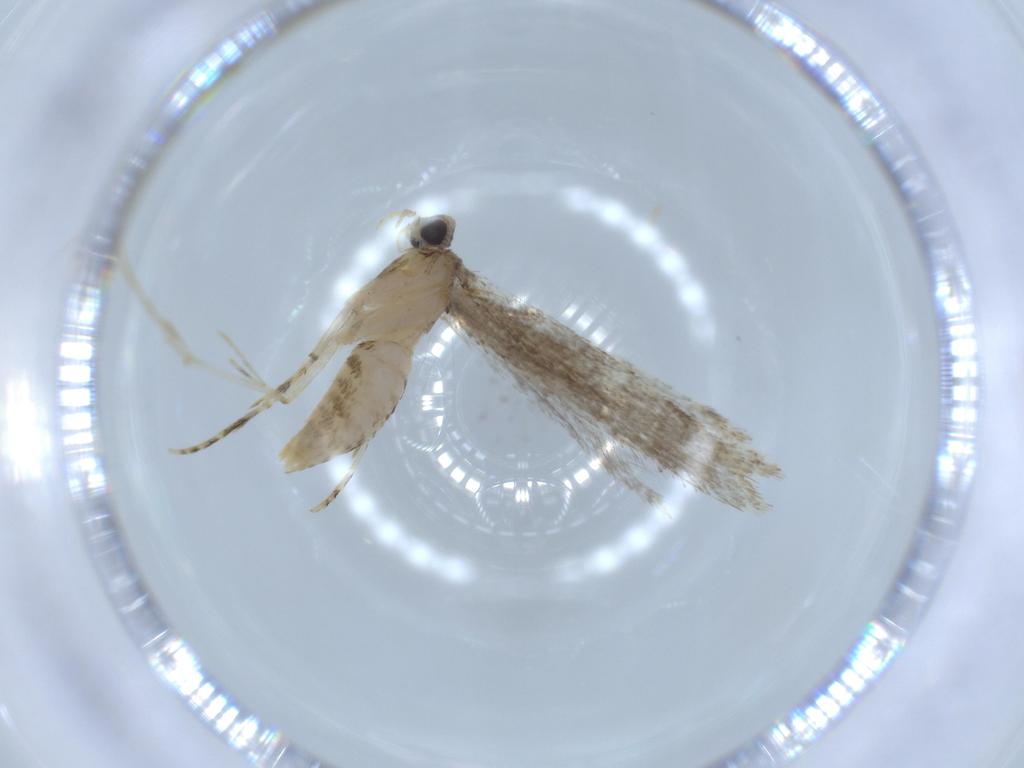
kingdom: Animalia
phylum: Arthropoda
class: Insecta
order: Lepidoptera
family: Tineidae
